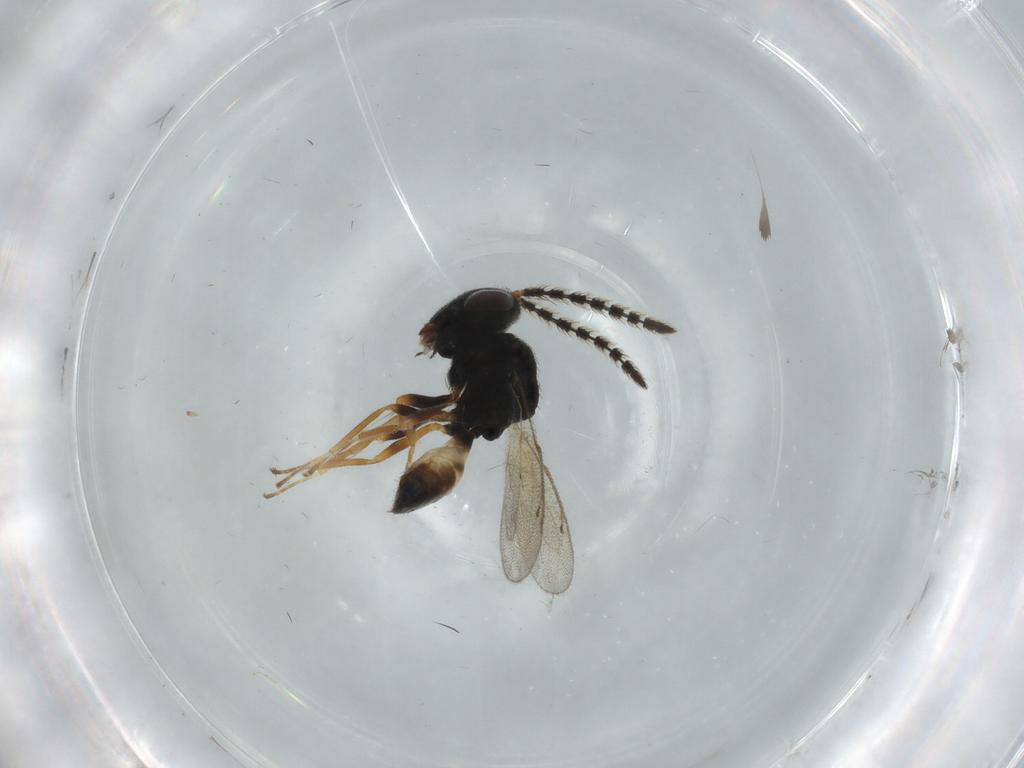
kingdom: Animalia
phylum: Arthropoda
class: Insecta
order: Hymenoptera
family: Pteromalidae
